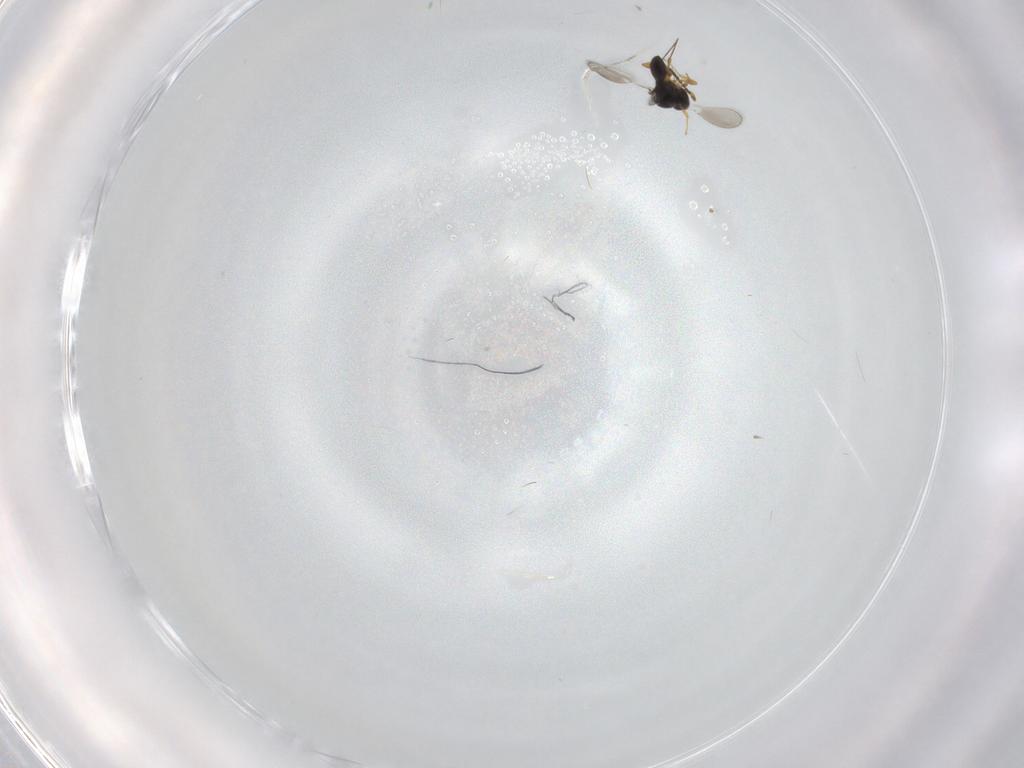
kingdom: Animalia
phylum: Arthropoda
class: Insecta
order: Hymenoptera
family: Platygastridae
